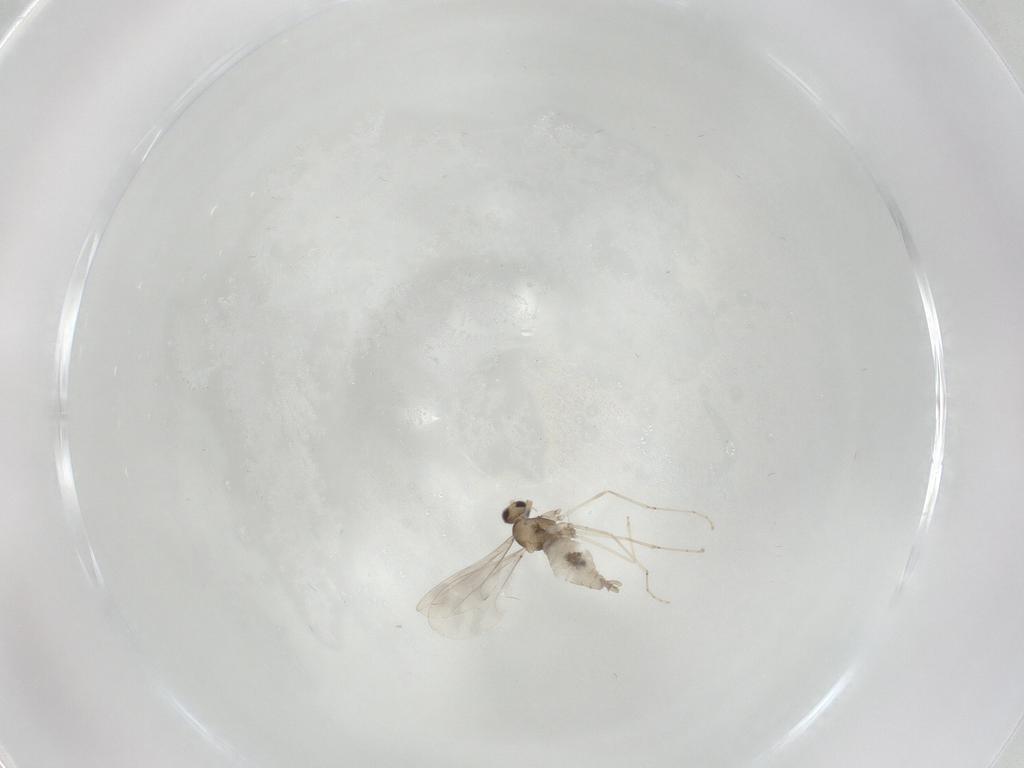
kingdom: Animalia
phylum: Arthropoda
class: Insecta
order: Diptera
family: Cecidomyiidae
